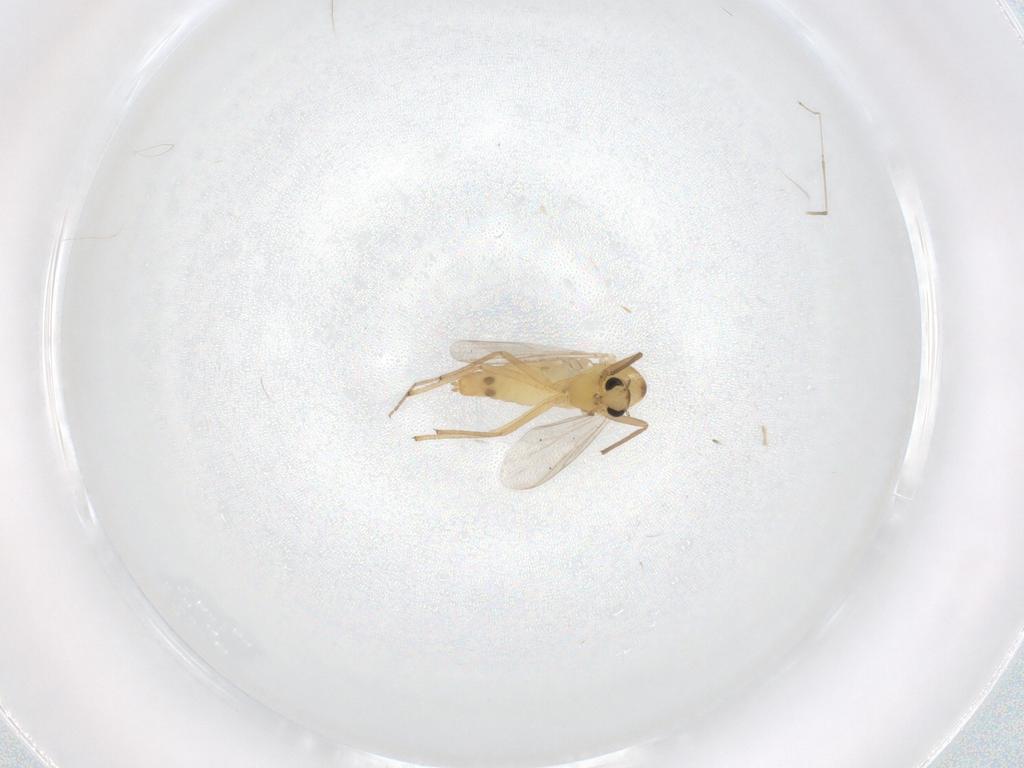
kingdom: Animalia
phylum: Arthropoda
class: Insecta
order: Diptera
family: Chironomidae
